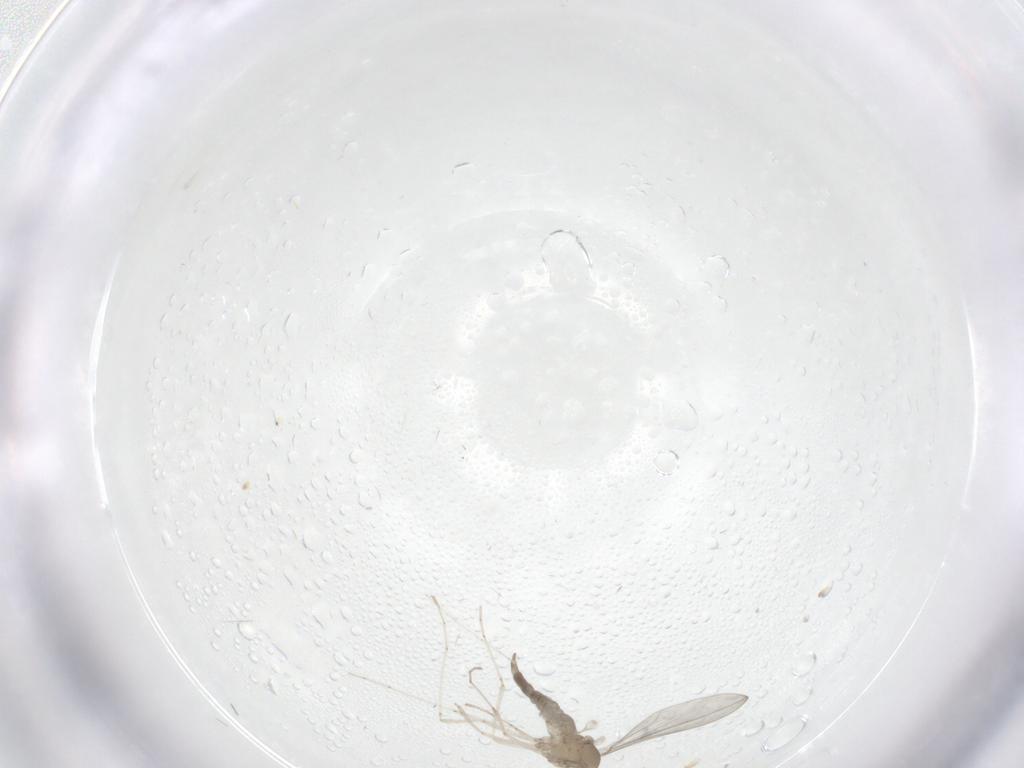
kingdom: Animalia
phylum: Arthropoda
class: Insecta
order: Diptera
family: Cecidomyiidae
